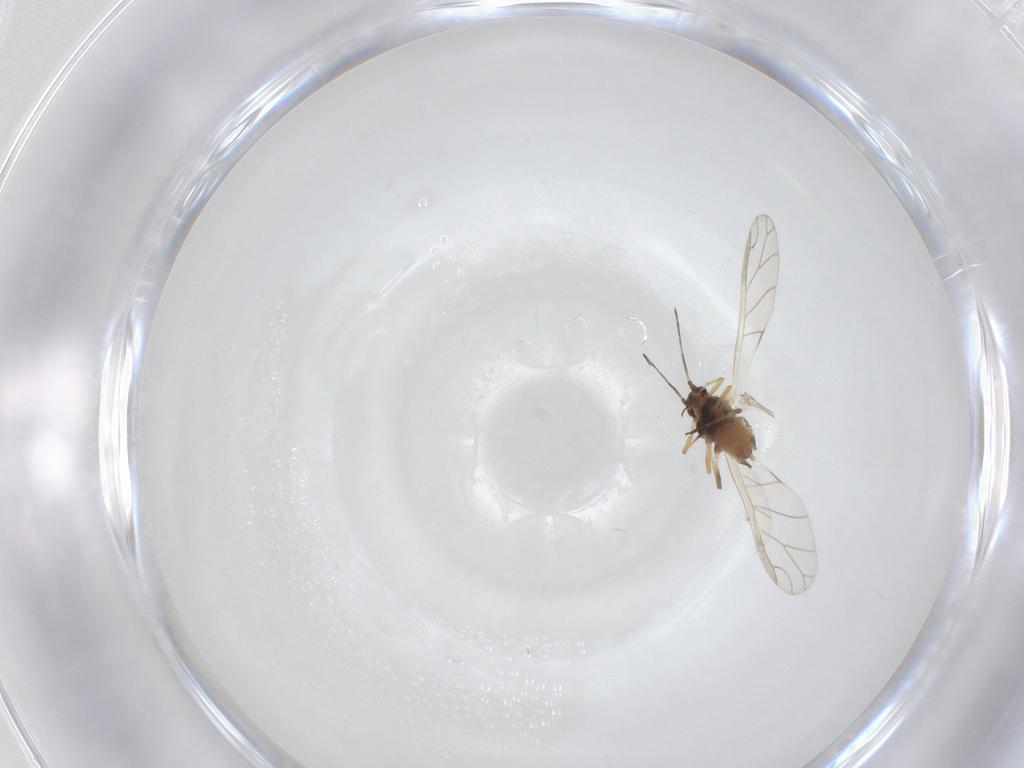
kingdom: Animalia
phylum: Arthropoda
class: Insecta
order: Hemiptera
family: Aphididae
